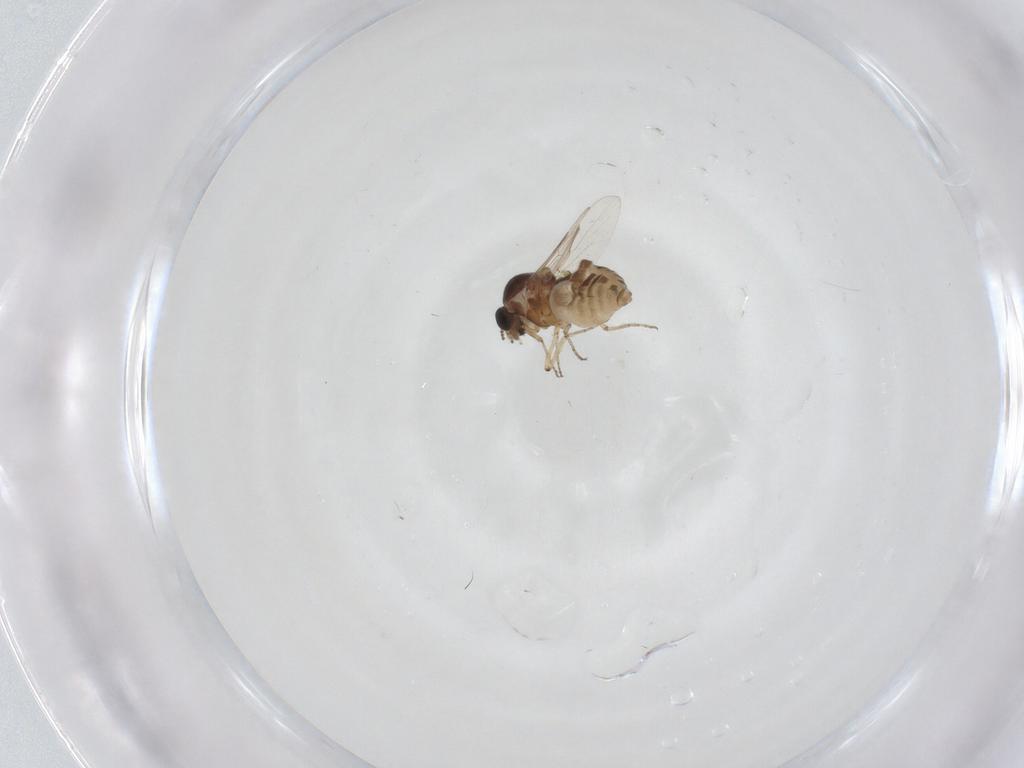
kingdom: Animalia
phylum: Arthropoda
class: Insecta
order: Diptera
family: Ceratopogonidae
